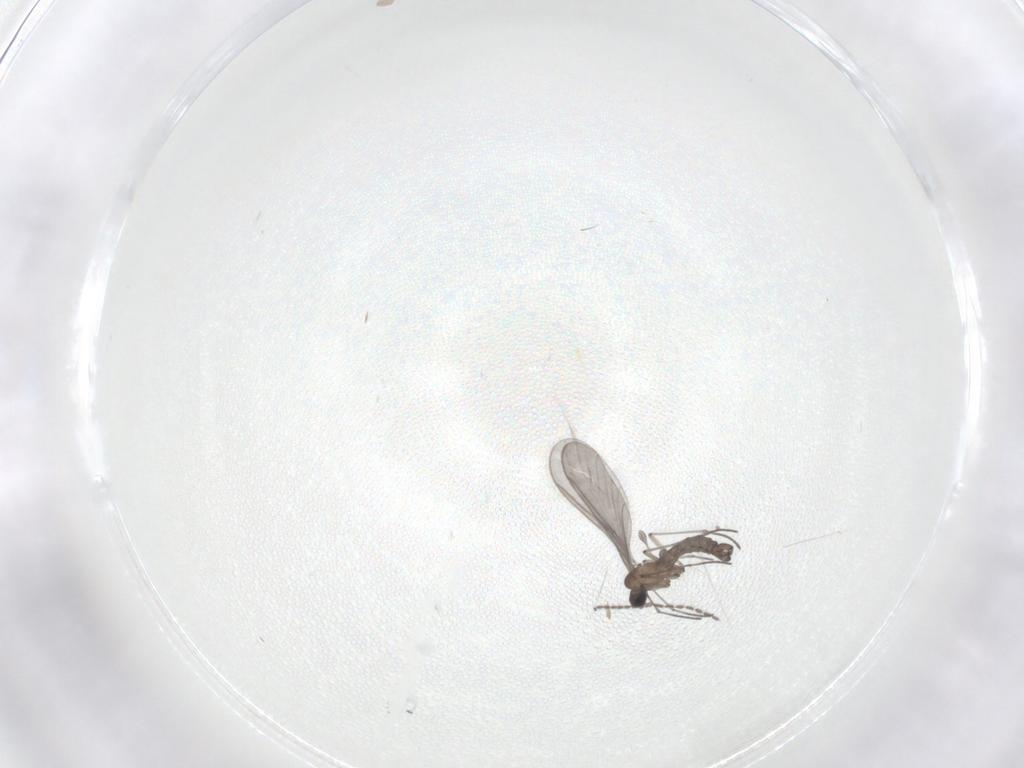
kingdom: Animalia
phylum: Arthropoda
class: Insecta
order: Diptera
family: Sciaridae
